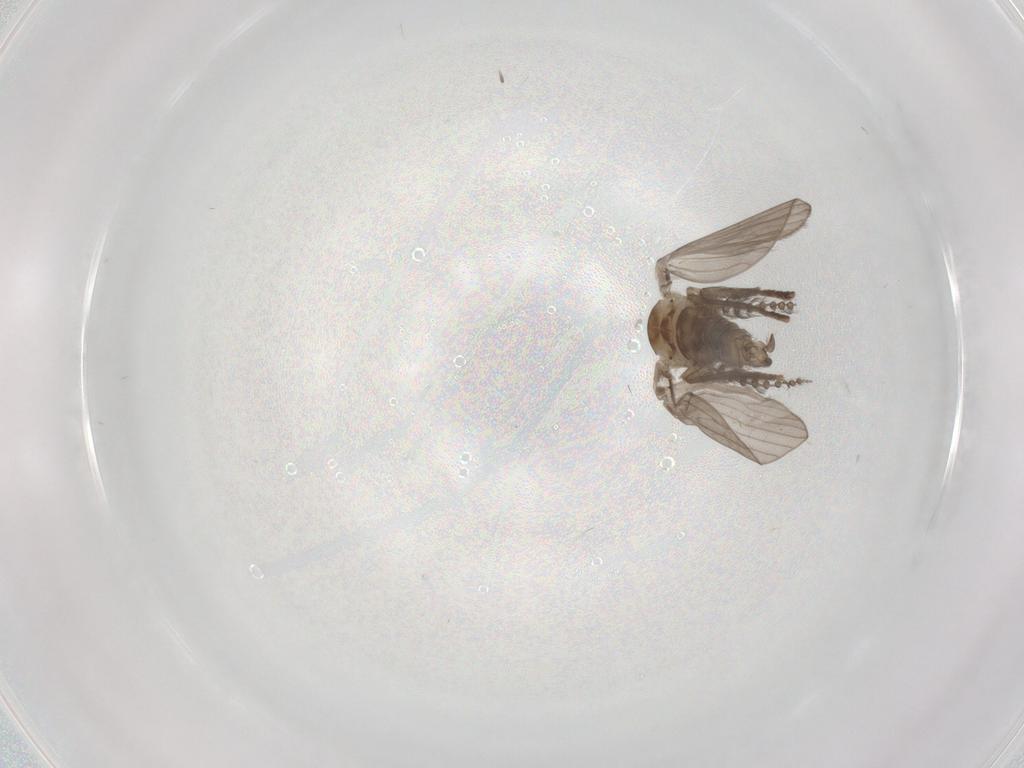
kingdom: Animalia
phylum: Arthropoda
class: Insecta
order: Diptera
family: Psychodidae
